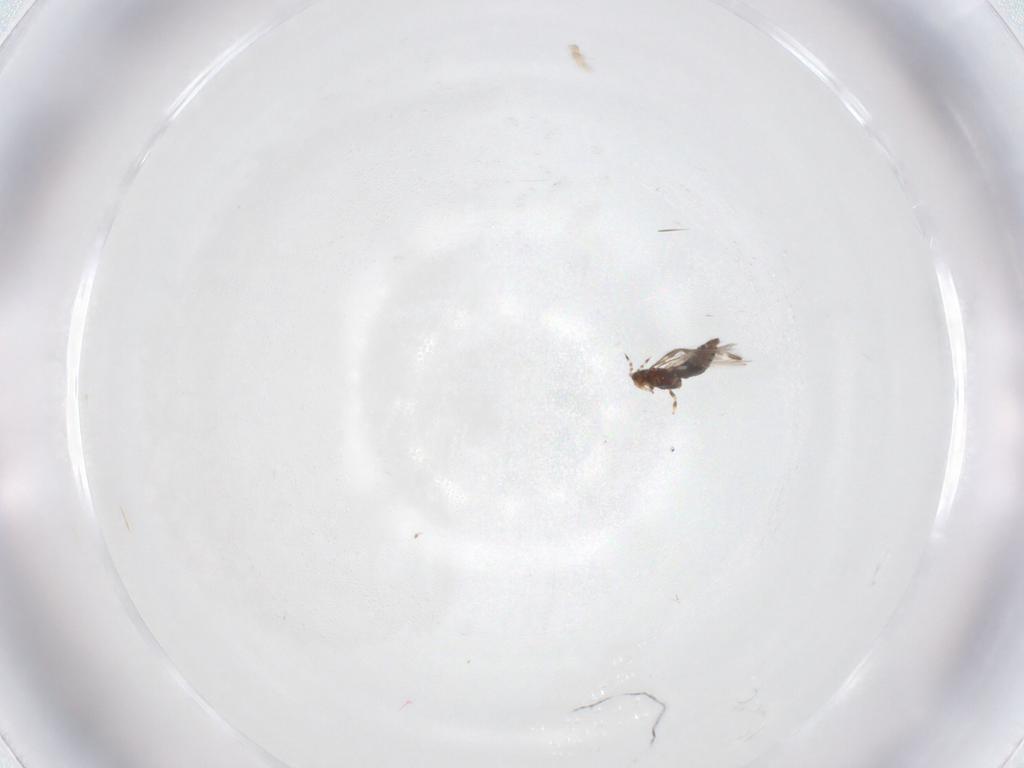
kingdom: Animalia
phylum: Arthropoda
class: Insecta
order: Thysanoptera
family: Thripidae
